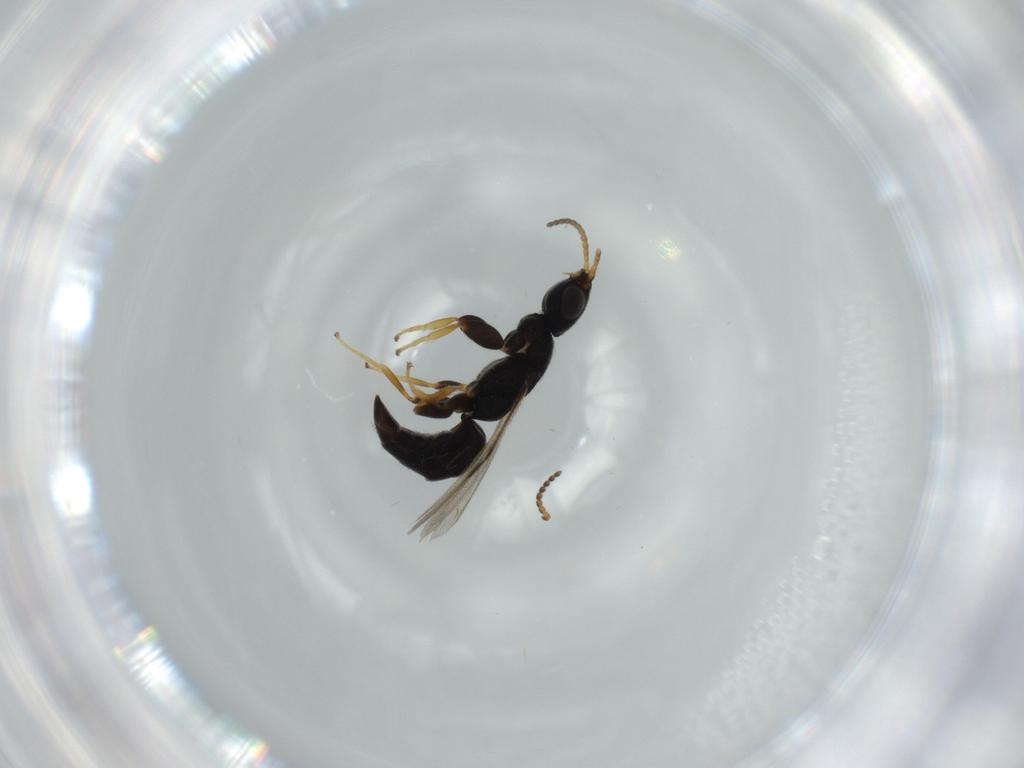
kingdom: Animalia
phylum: Arthropoda
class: Insecta
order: Hymenoptera
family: Bethylidae
